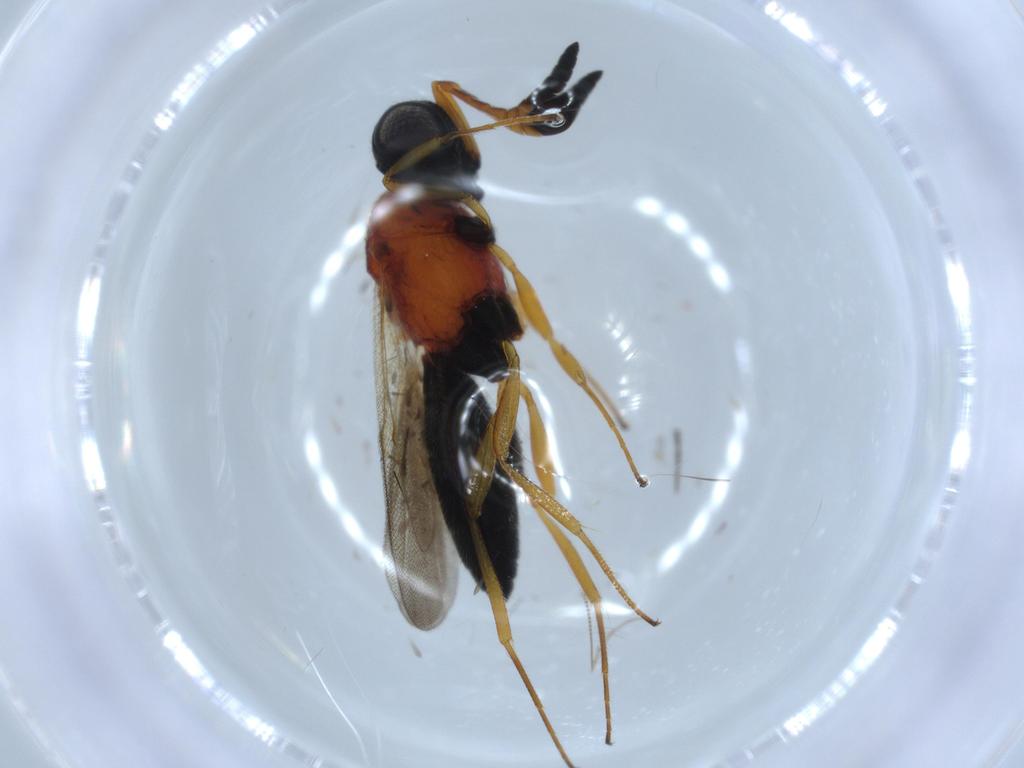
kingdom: Animalia
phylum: Arthropoda
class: Insecta
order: Hymenoptera
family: Scelionidae
